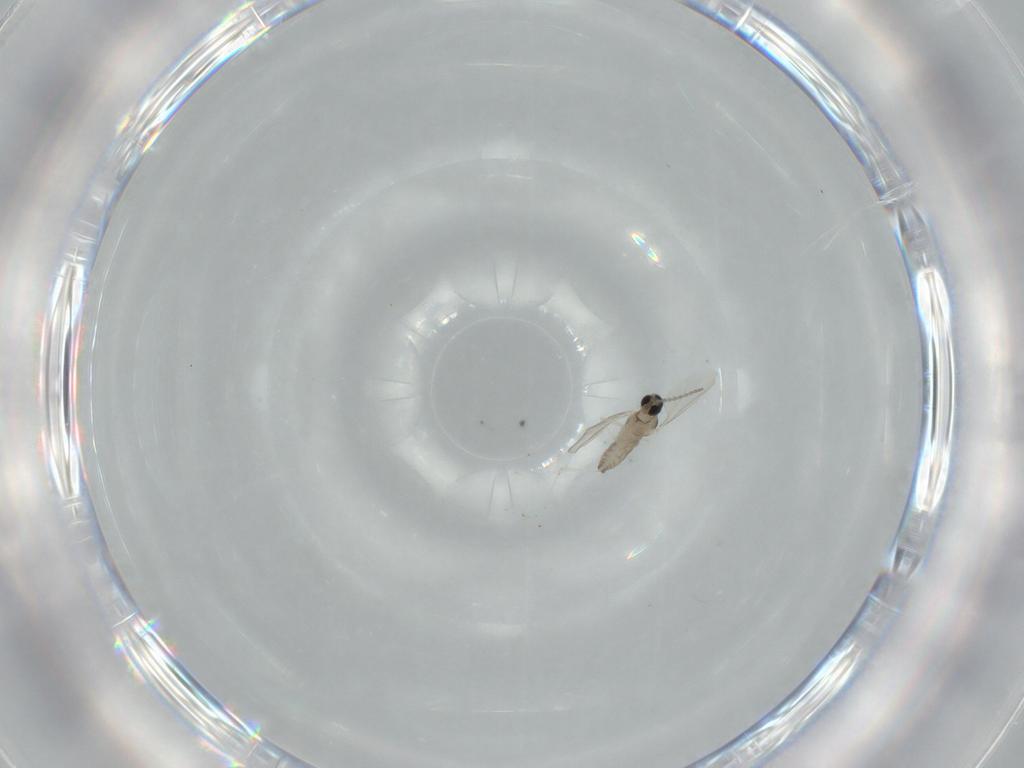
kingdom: Animalia
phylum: Arthropoda
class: Insecta
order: Diptera
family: Cecidomyiidae
